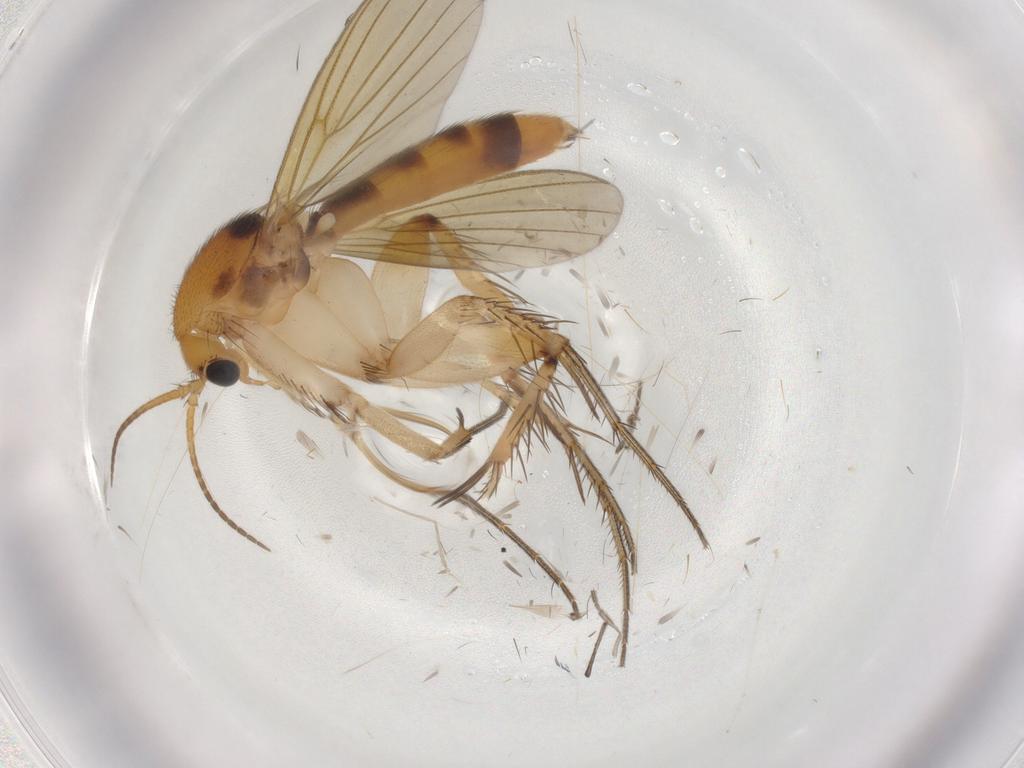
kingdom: Animalia
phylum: Arthropoda
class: Insecta
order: Diptera
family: Mycetophilidae
